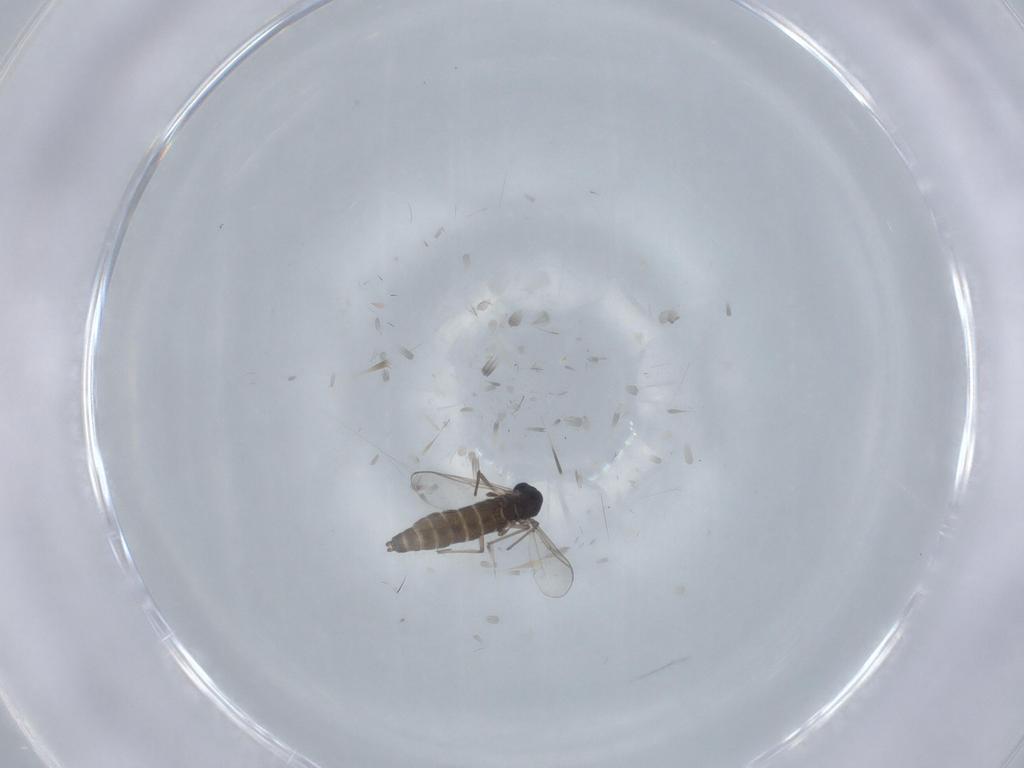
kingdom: Animalia
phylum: Arthropoda
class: Insecta
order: Diptera
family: Chironomidae
